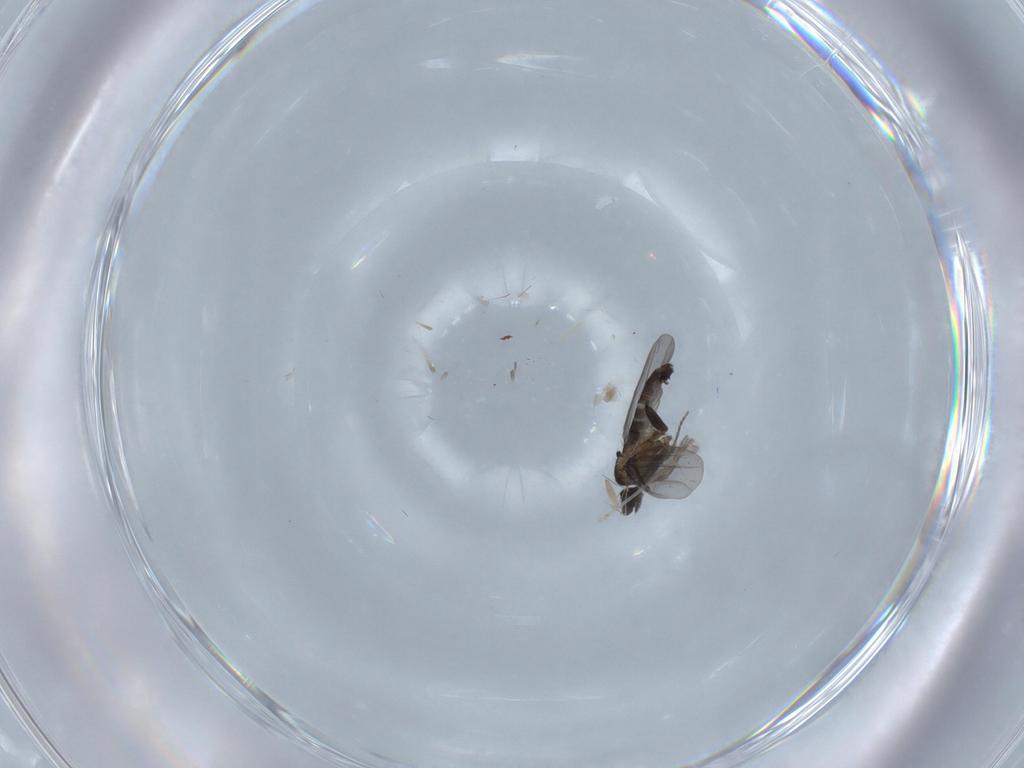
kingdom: Animalia
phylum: Arthropoda
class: Insecta
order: Diptera
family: Phoridae
